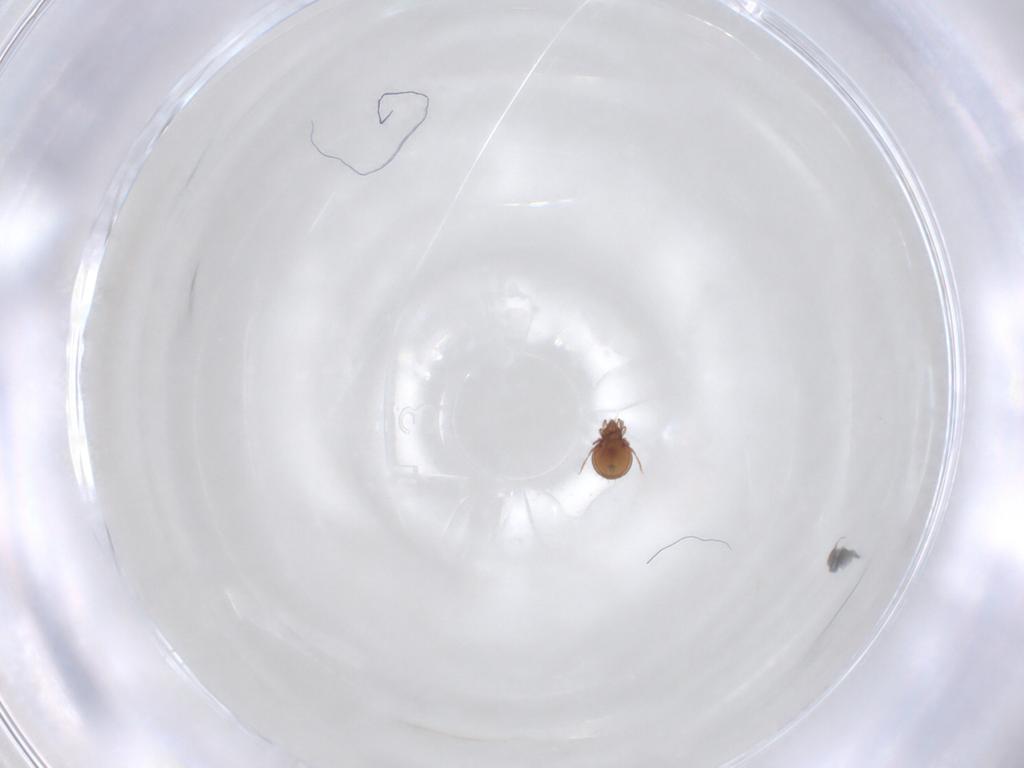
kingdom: Animalia
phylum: Arthropoda
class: Arachnida
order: Sarcoptiformes
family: Oribatulidae
